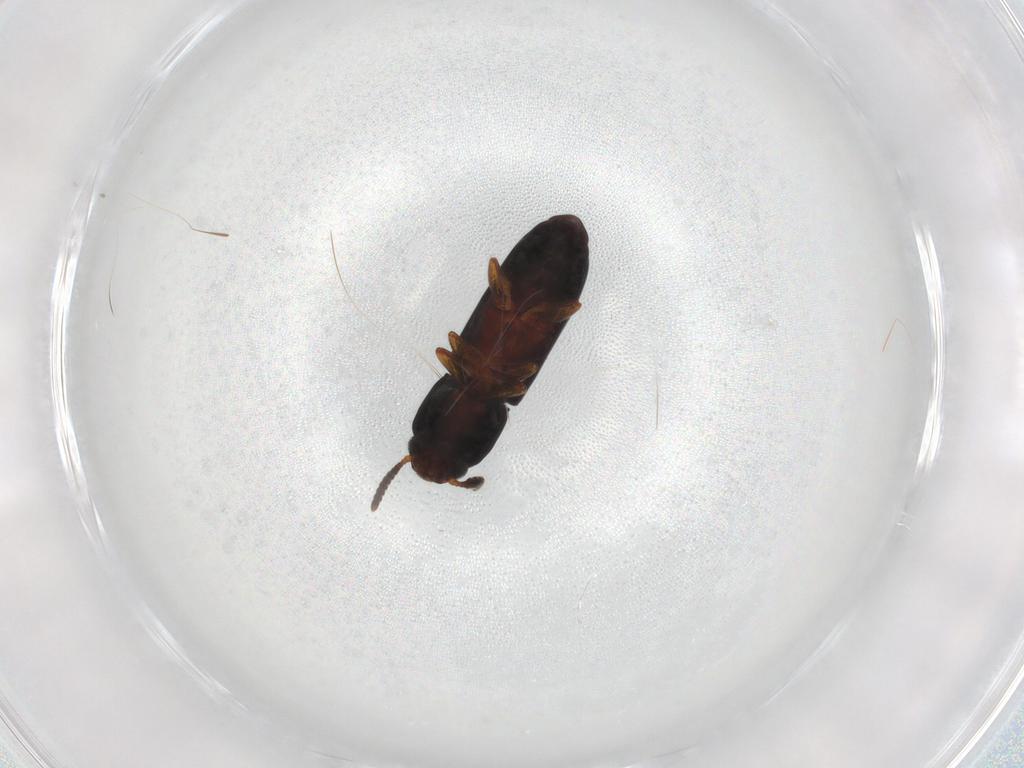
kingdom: Animalia
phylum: Arthropoda
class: Insecta
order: Coleoptera
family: Tenebrionidae
